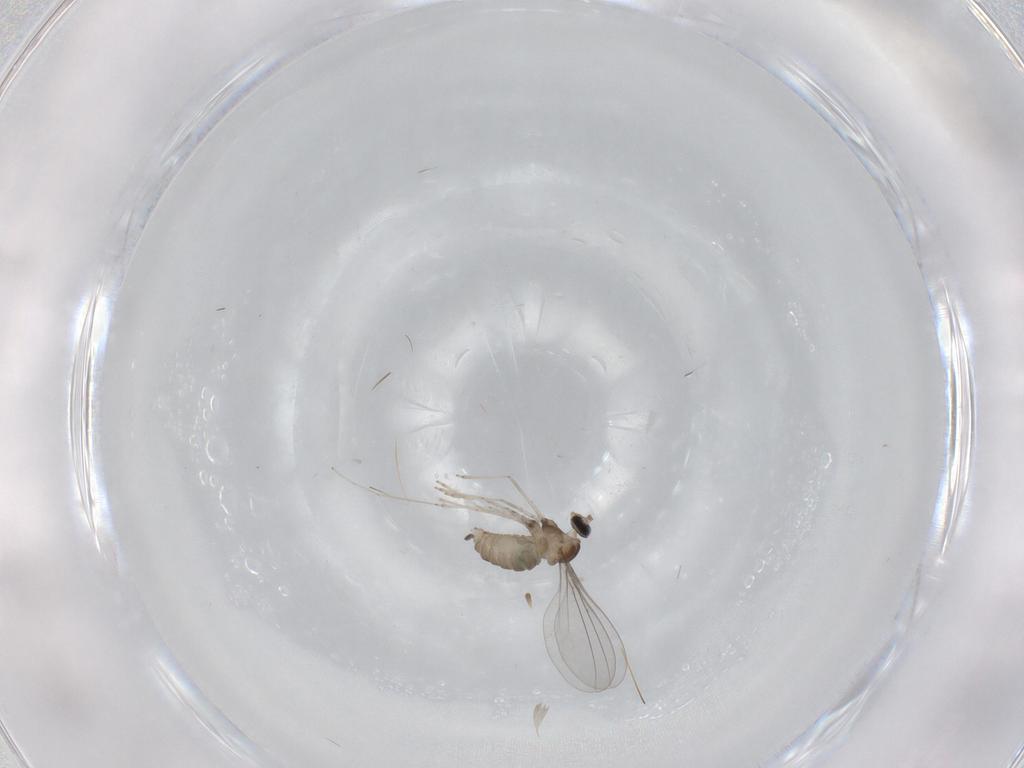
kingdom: Animalia
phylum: Arthropoda
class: Insecta
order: Diptera
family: Cecidomyiidae
